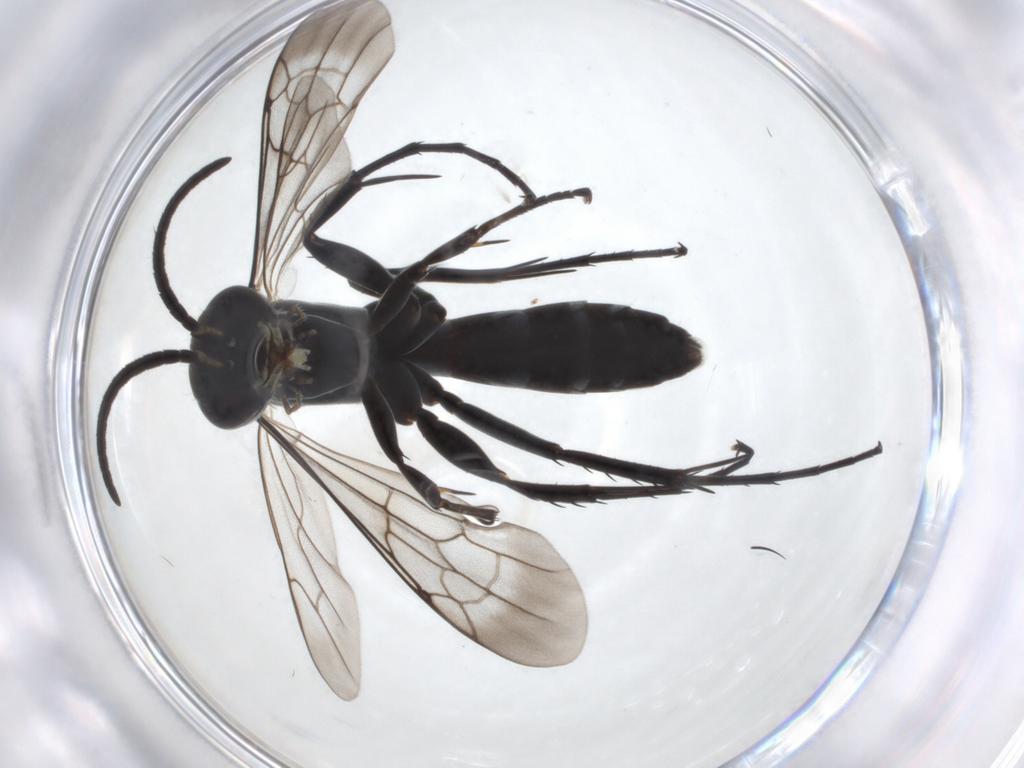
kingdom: Animalia
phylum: Arthropoda
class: Insecta
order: Hymenoptera
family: Pompilidae
